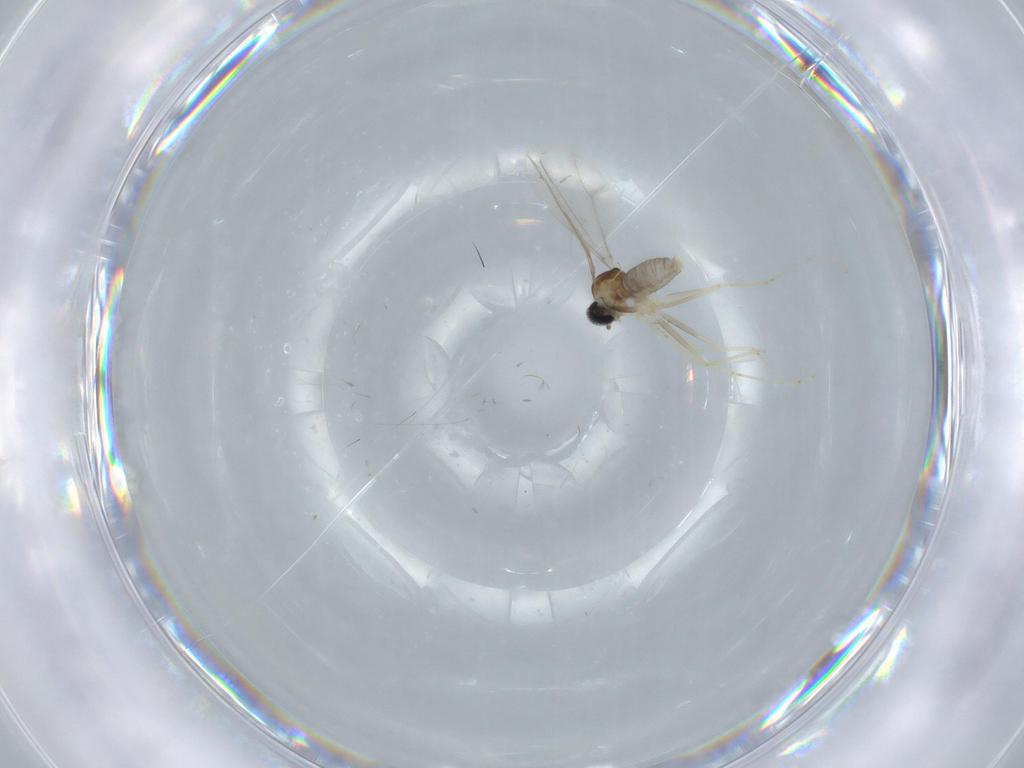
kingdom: Animalia
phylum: Arthropoda
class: Insecta
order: Diptera
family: Cecidomyiidae
